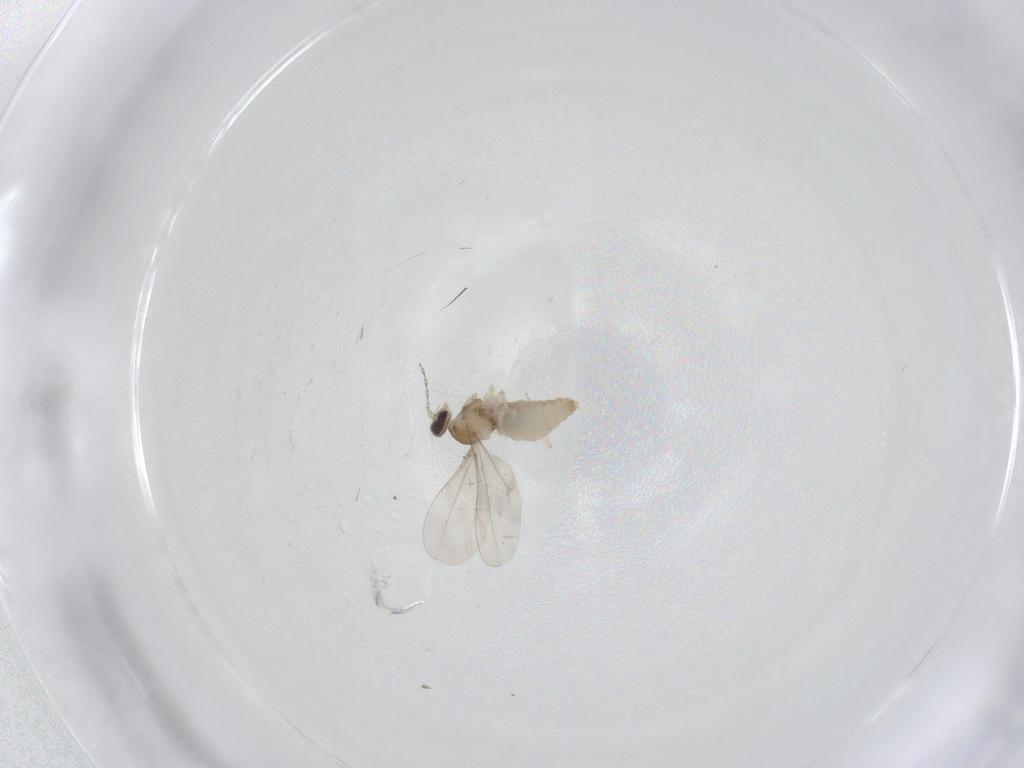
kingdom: Animalia
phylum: Arthropoda
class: Insecta
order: Diptera
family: Cecidomyiidae
